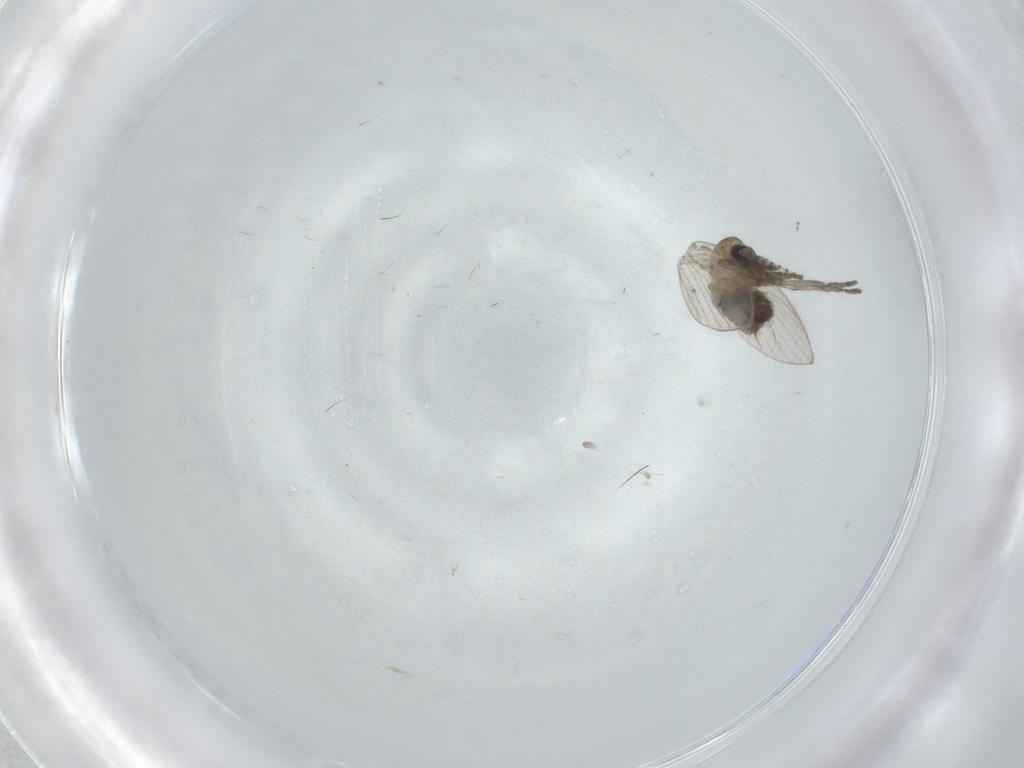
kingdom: Animalia
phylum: Arthropoda
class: Insecta
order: Diptera
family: Psychodidae
